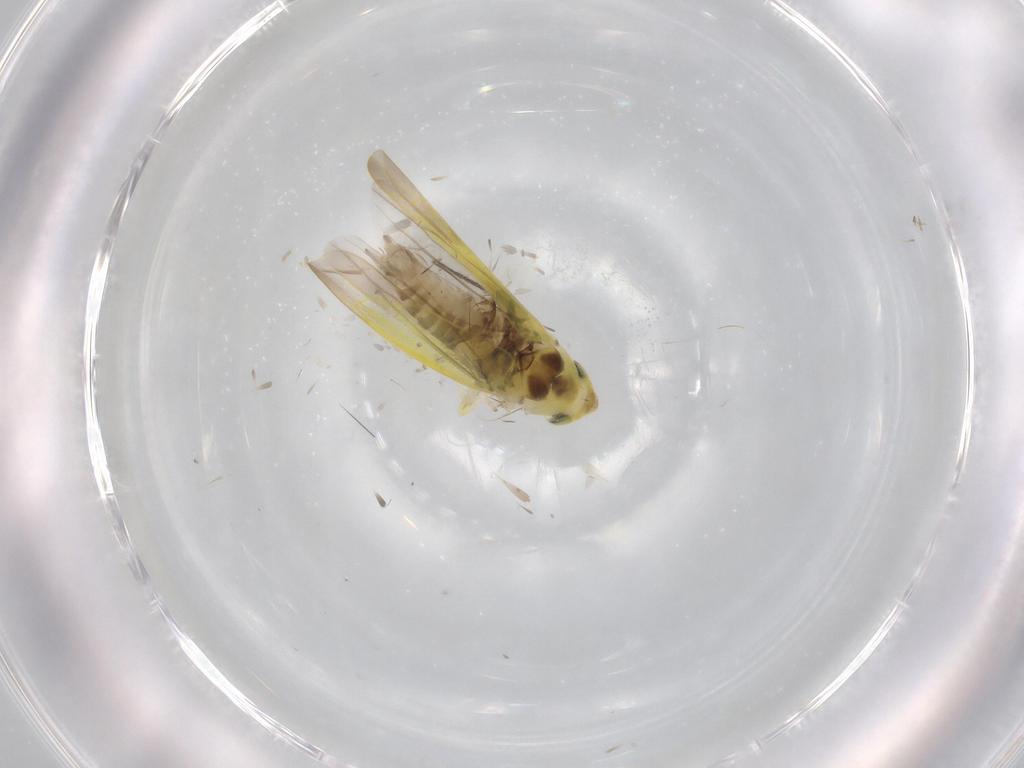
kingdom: Animalia
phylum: Arthropoda
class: Insecta
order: Hemiptera
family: Cicadellidae
